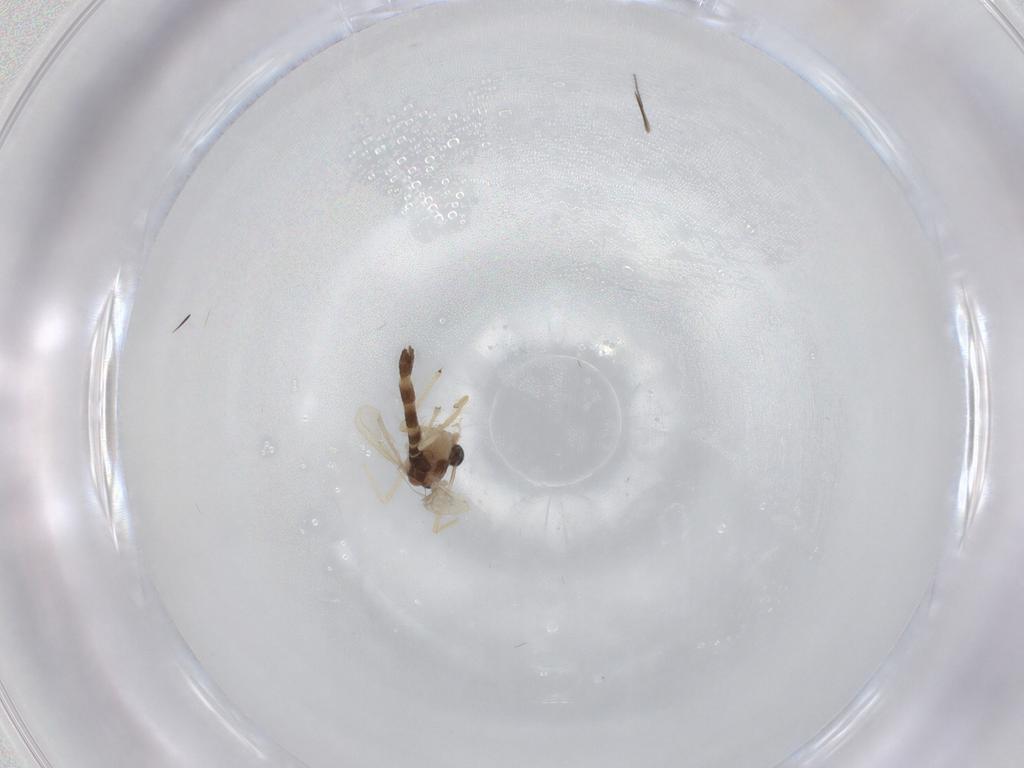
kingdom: Animalia
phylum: Arthropoda
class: Insecta
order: Diptera
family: Chironomidae
